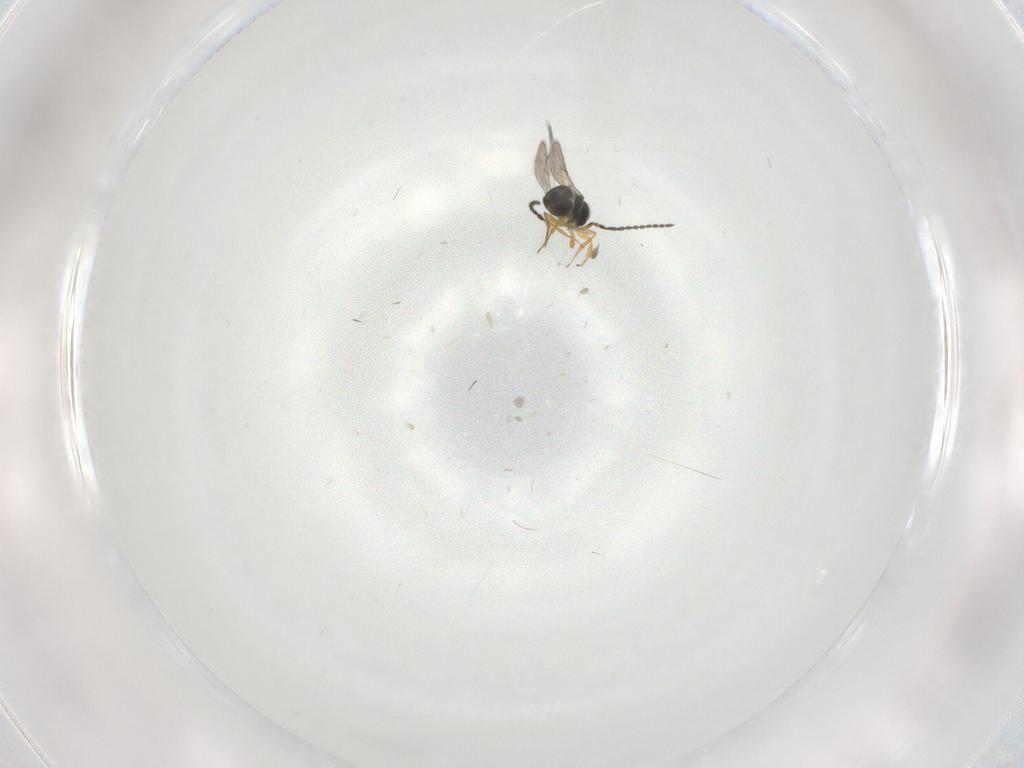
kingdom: Animalia
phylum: Arthropoda
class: Insecta
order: Hymenoptera
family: Scelionidae
